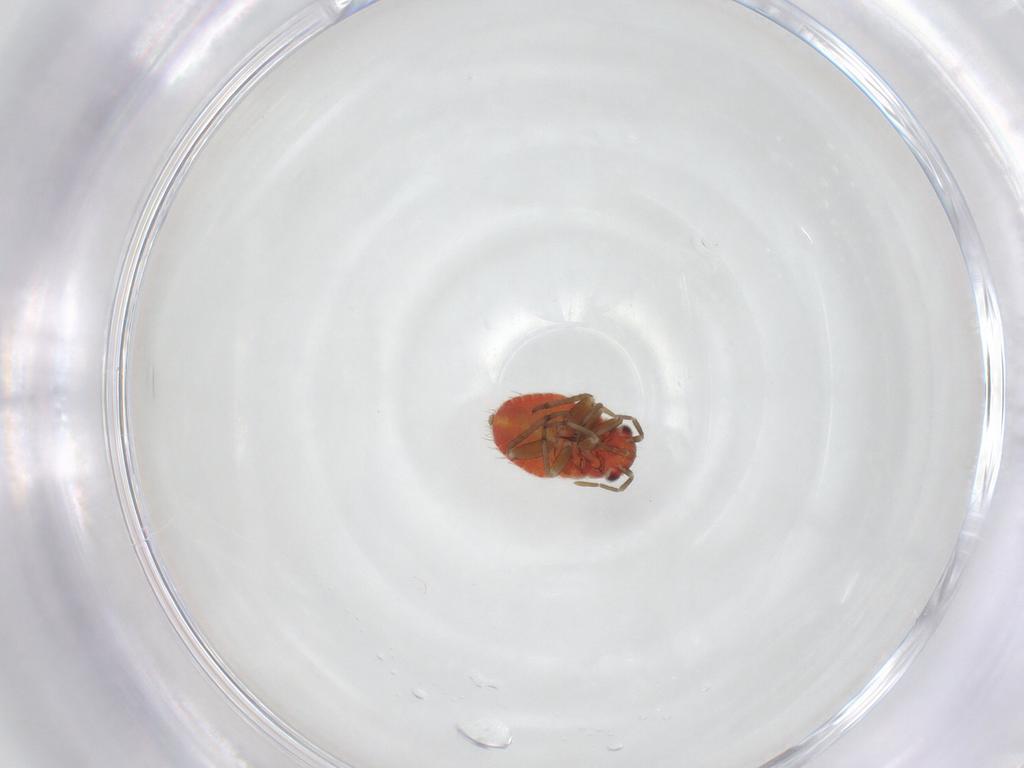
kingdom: Animalia
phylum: Arthropoda
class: Insecta
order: Hemiptera
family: Miridae
